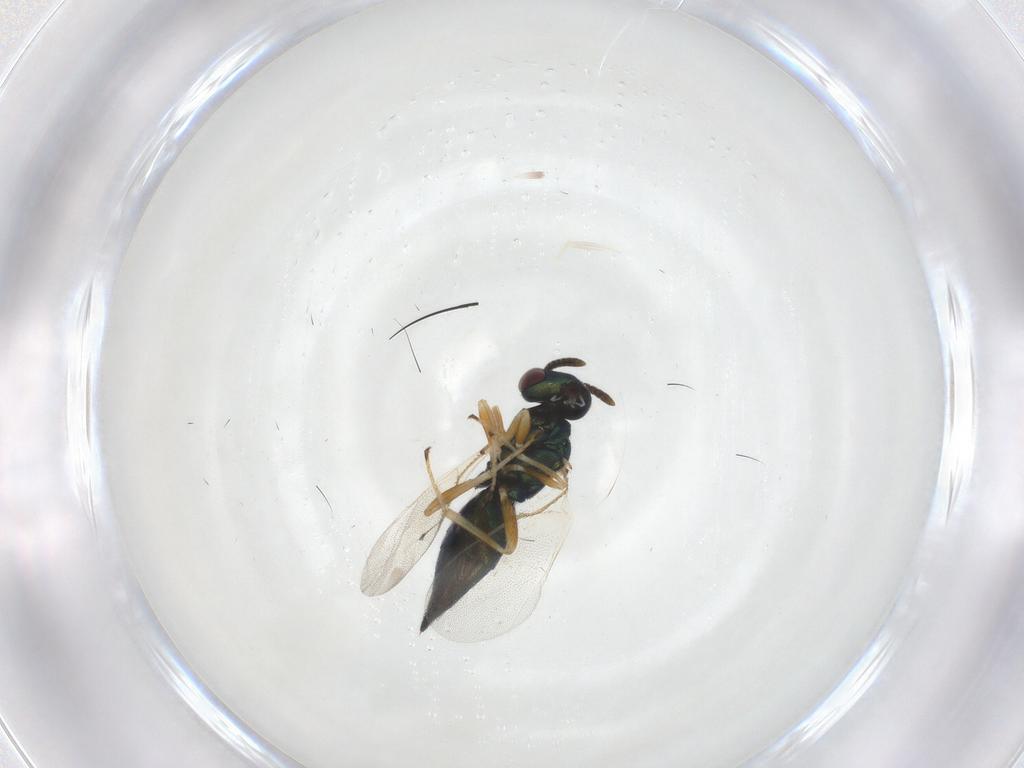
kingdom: Animalia
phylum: Arthropoda
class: Insecta
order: Hymenoptera
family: Pteromalidae
